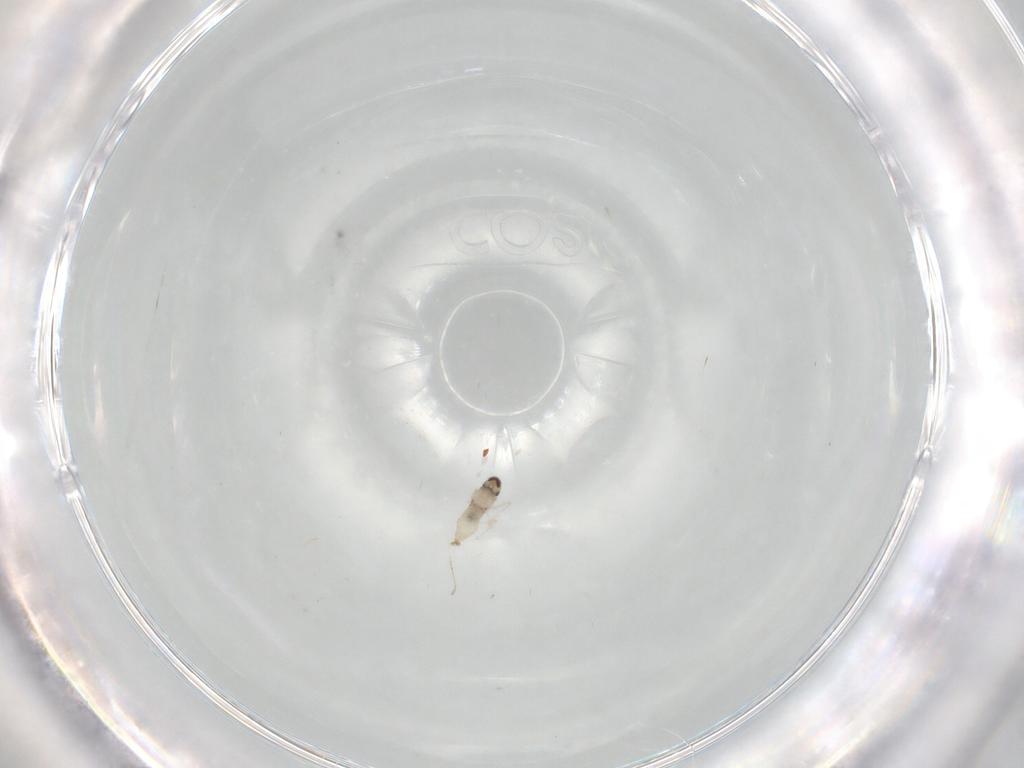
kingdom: Animalia
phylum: Arthropoda
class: Insecta
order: Diptera
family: Cecidomyiidae
